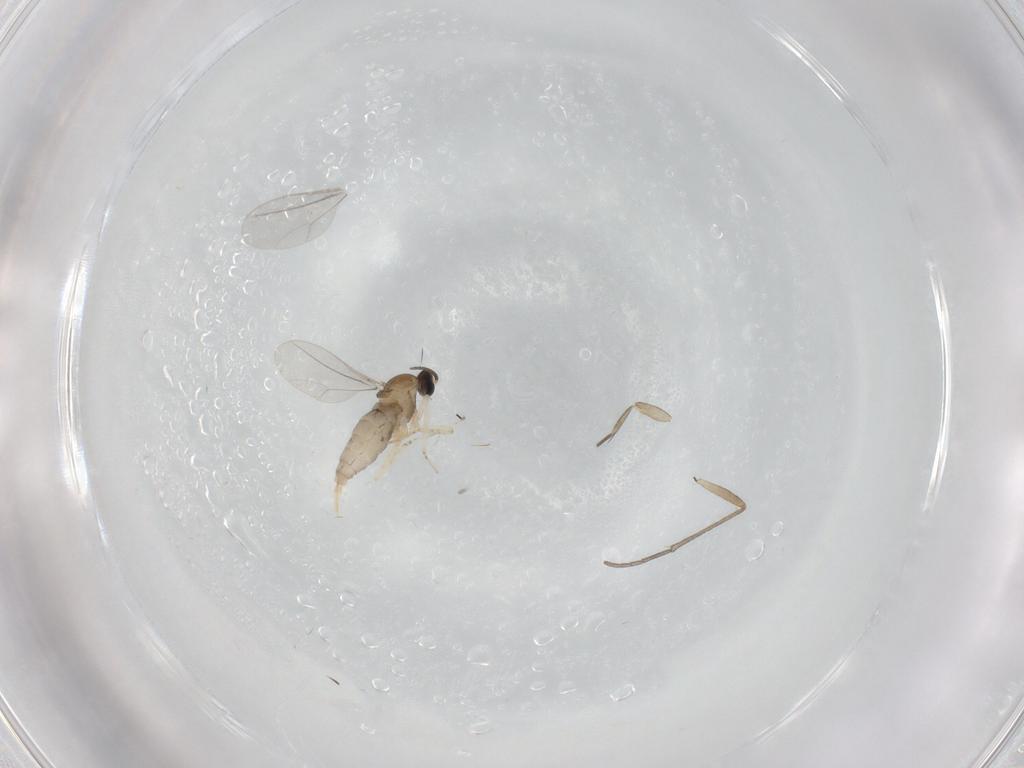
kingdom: Animalia
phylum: Arthropoda
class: Insecta
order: Diptera
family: Cecidomyiidae
